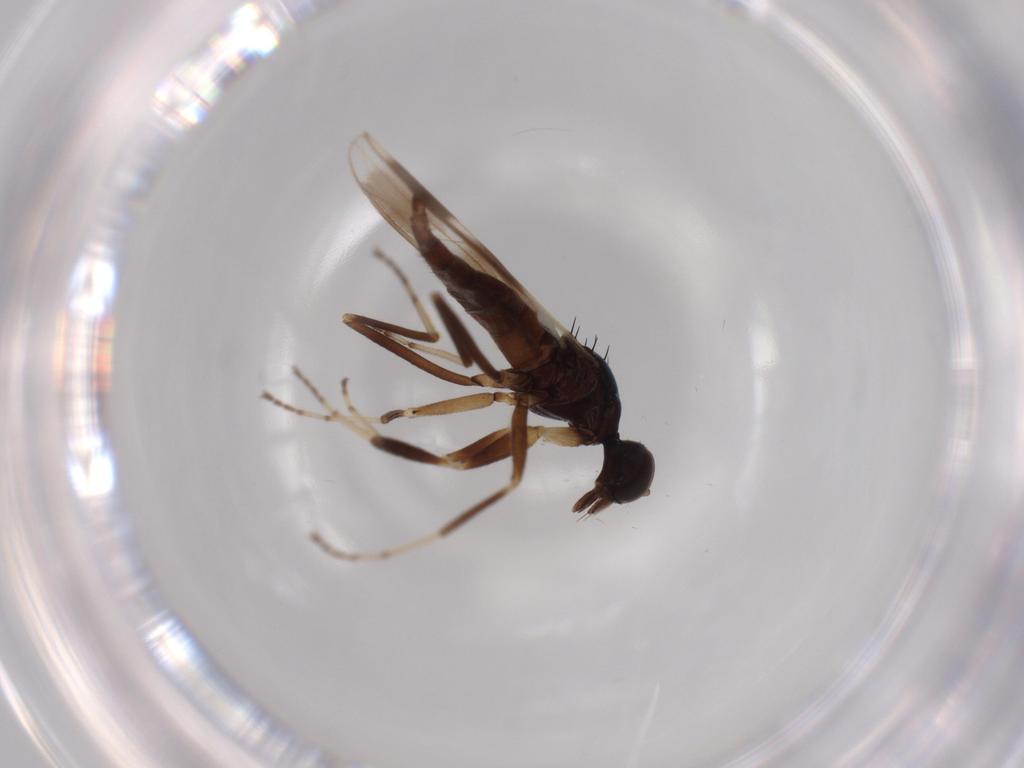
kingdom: Animalia
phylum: Arthropoda
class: Insecta
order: Diptera
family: Hybotidae
